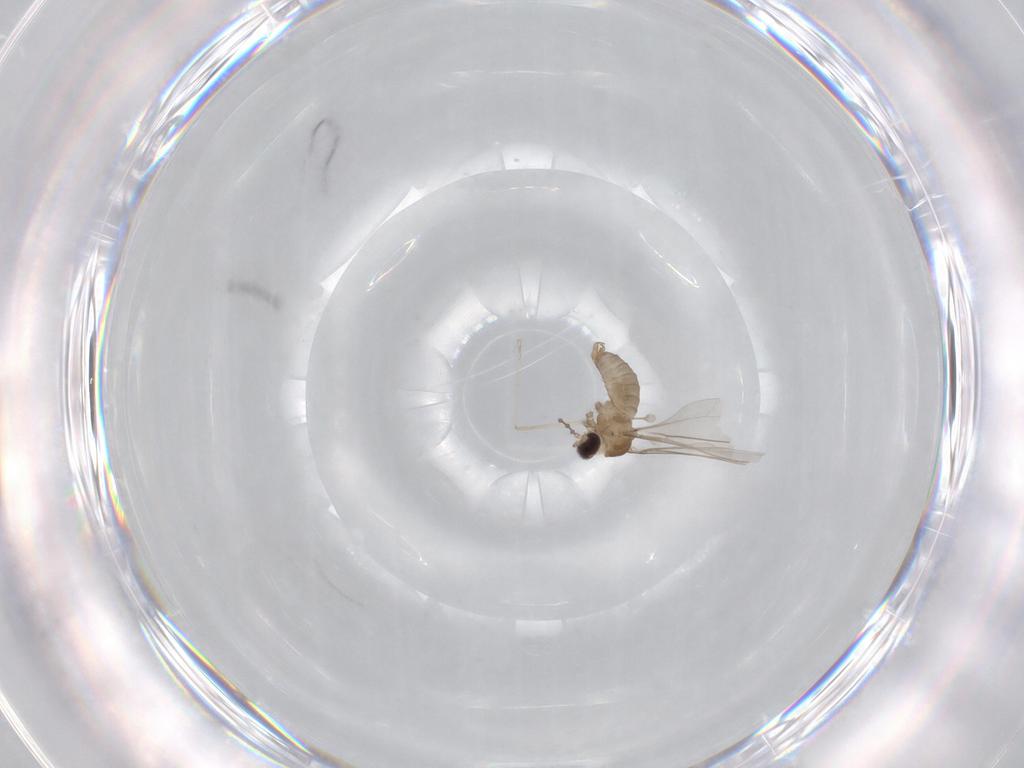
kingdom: Animalia
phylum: Arthropoda
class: Insecta
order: Diptera
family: Cecidomyiidae
